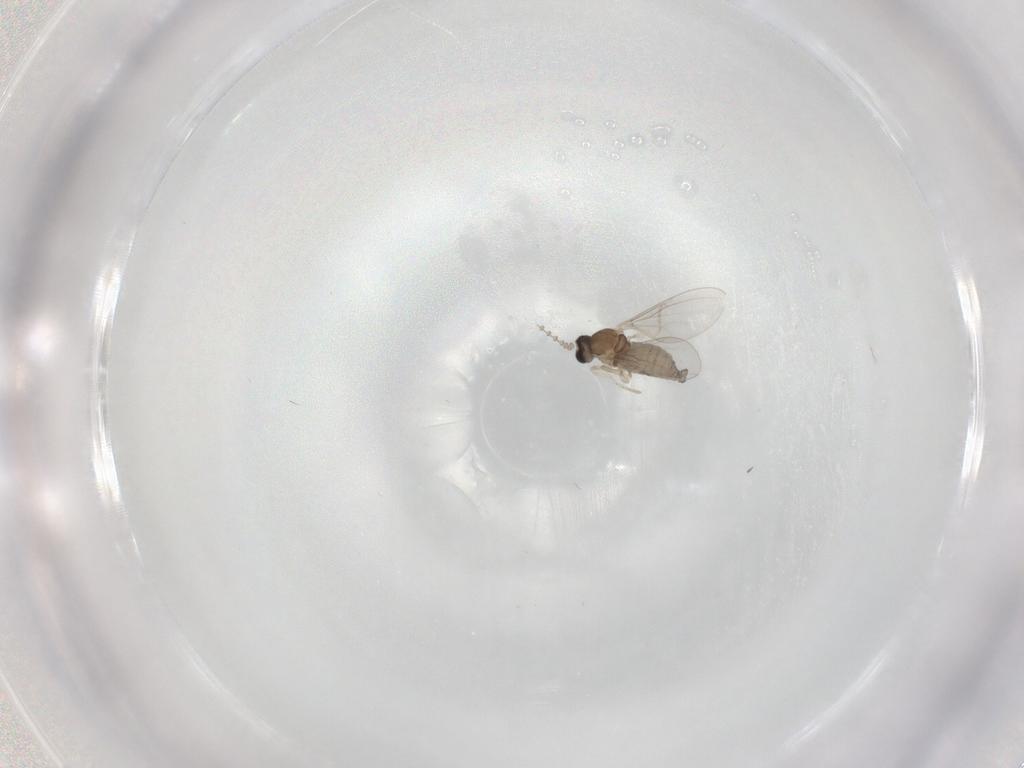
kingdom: Animalia
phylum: Arthropoda
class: Insecta
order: Diptera
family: Cecidomyiidae
